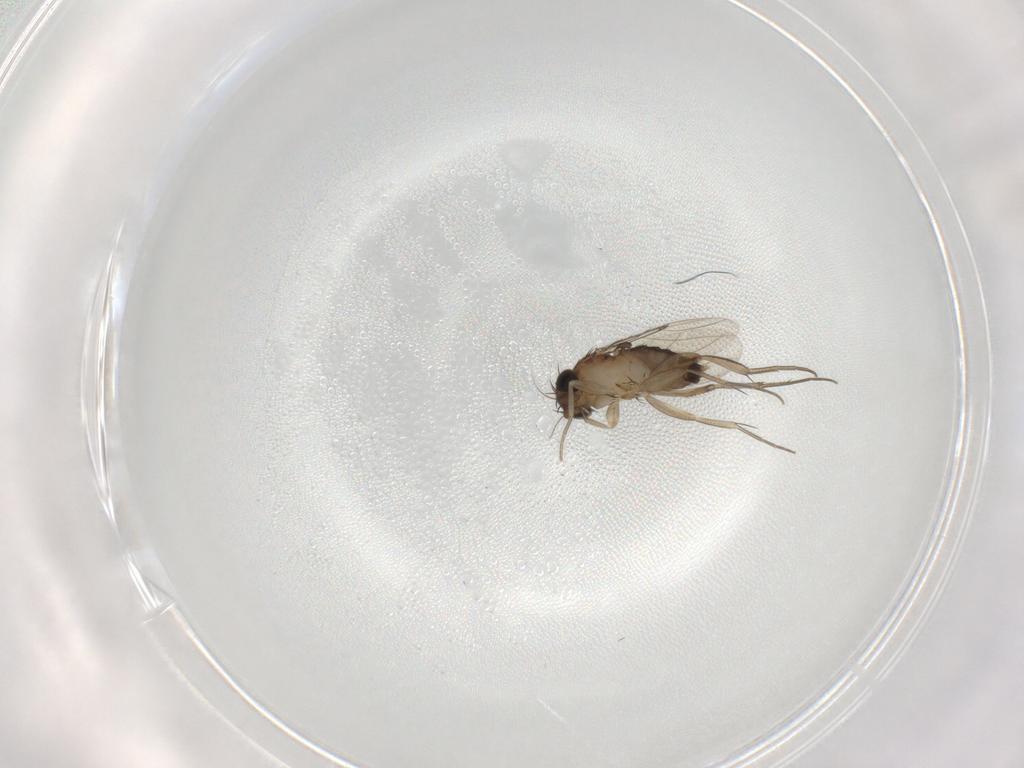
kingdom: Animalia
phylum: Arthropoda
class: Insecta
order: Diptera
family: Phoridae
